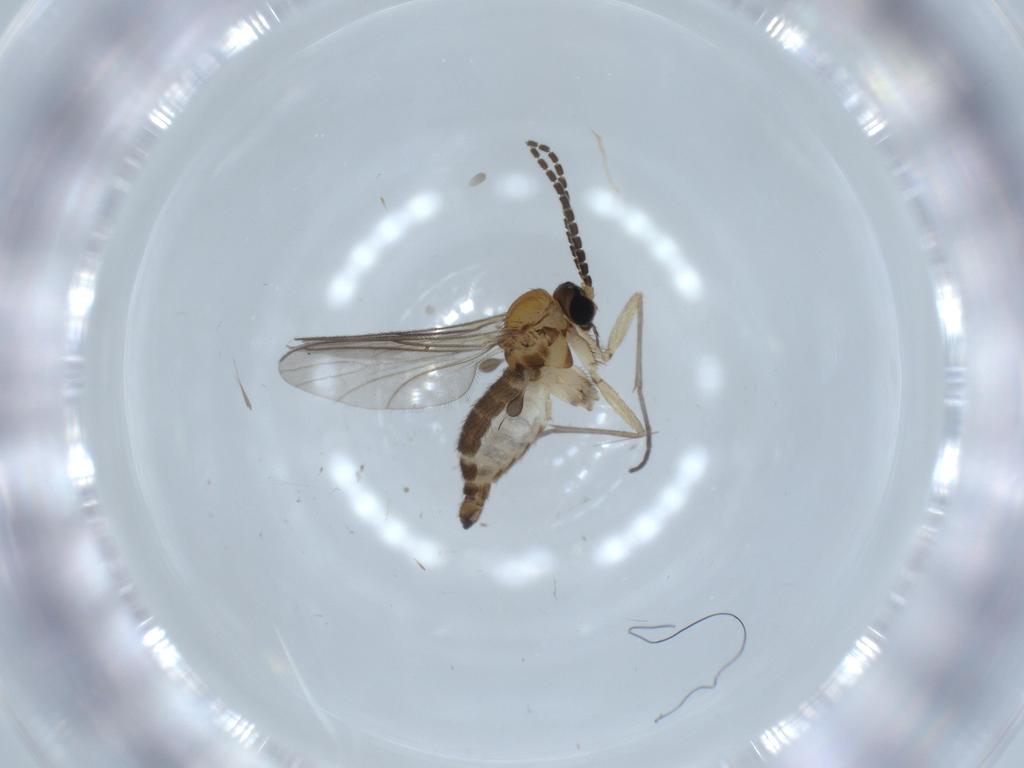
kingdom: Animalia
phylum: Arthropoda
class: Insecta
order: Diptera
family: Sciaridae
